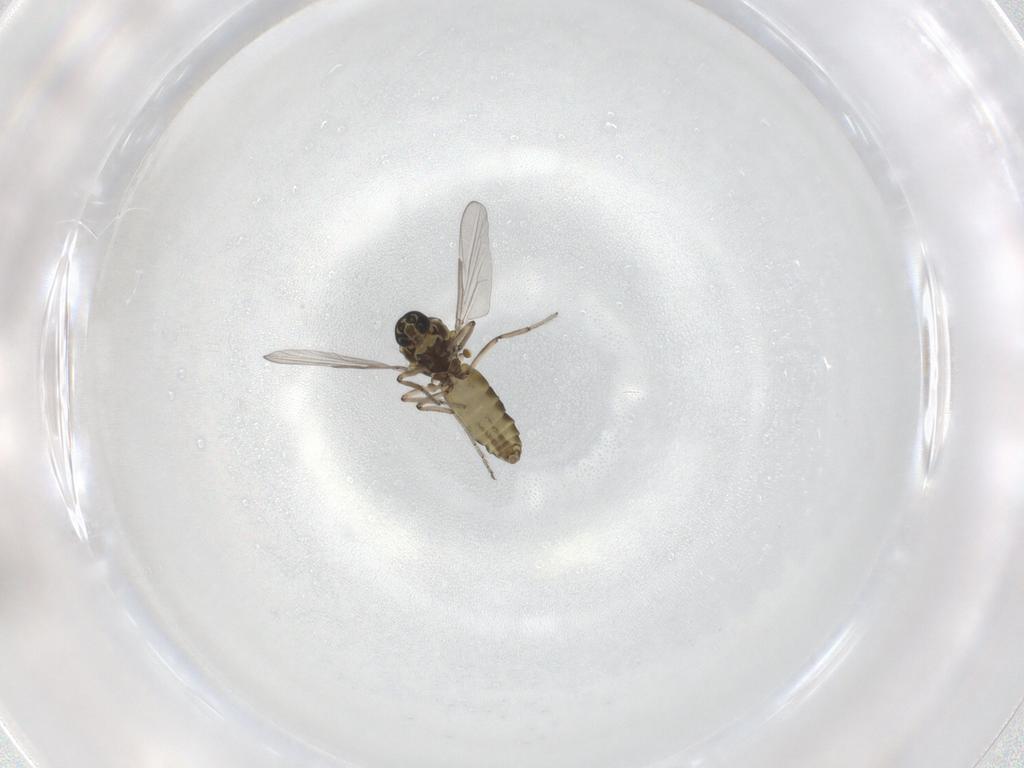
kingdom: Animalia
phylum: Arthropoda
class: Insecta
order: Diptera
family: Ceratopogonidae
